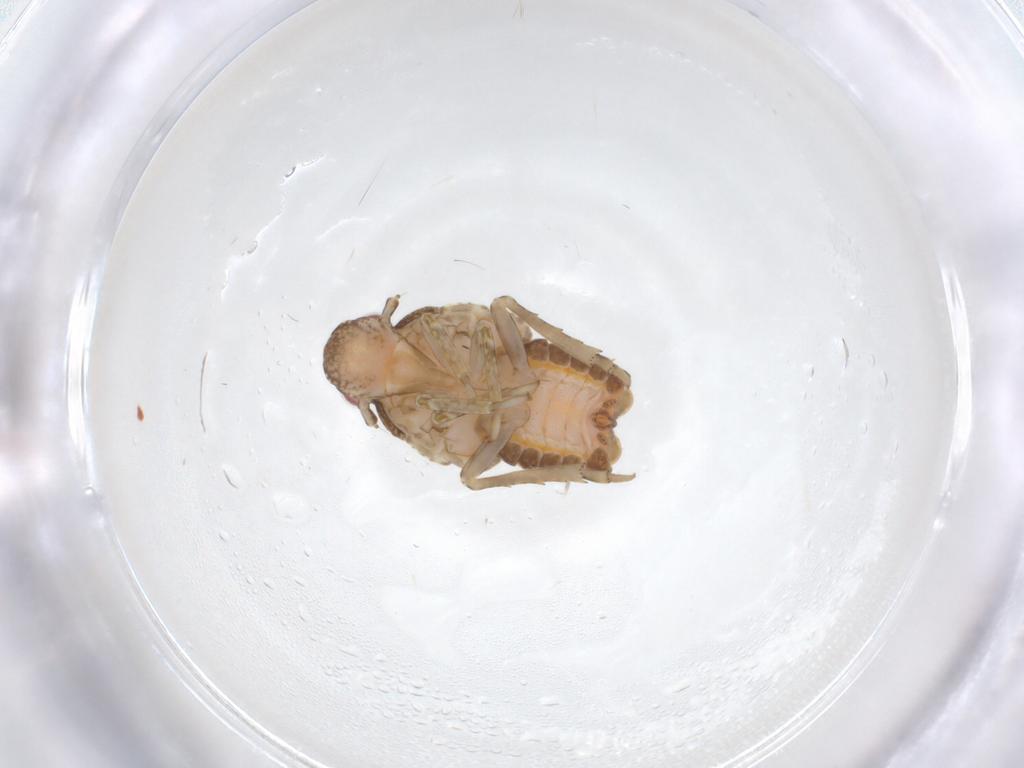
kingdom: Animalia
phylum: Arthropoda
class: Insecta
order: Hemiptera
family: Flatidae
